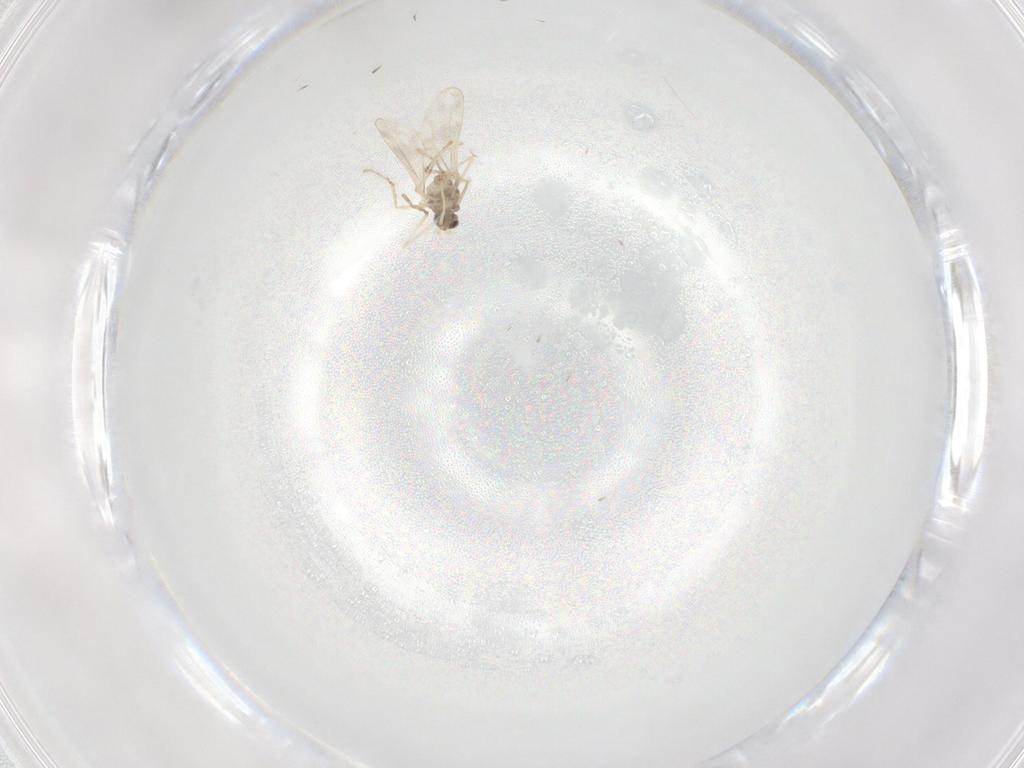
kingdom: Animalia
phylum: Arthropoda
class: Insecta
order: Diptera
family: Cecidomyiidae
